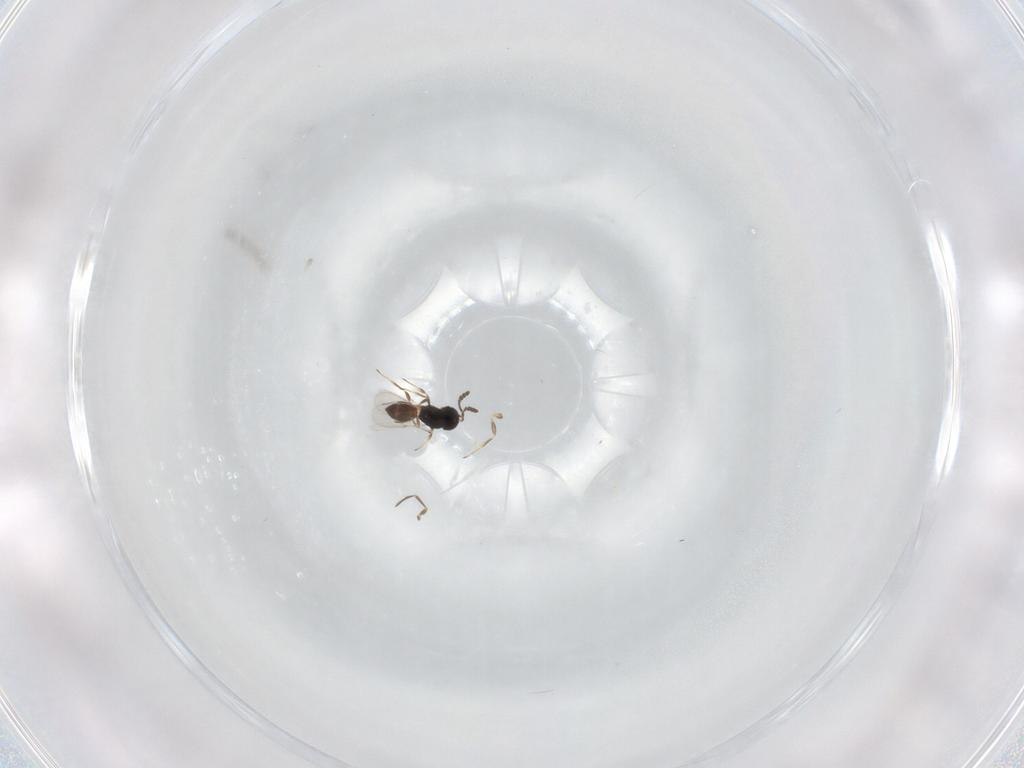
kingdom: Animalia
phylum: Arthropoda
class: Insecta
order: Hymenoptera
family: Scelionidae
